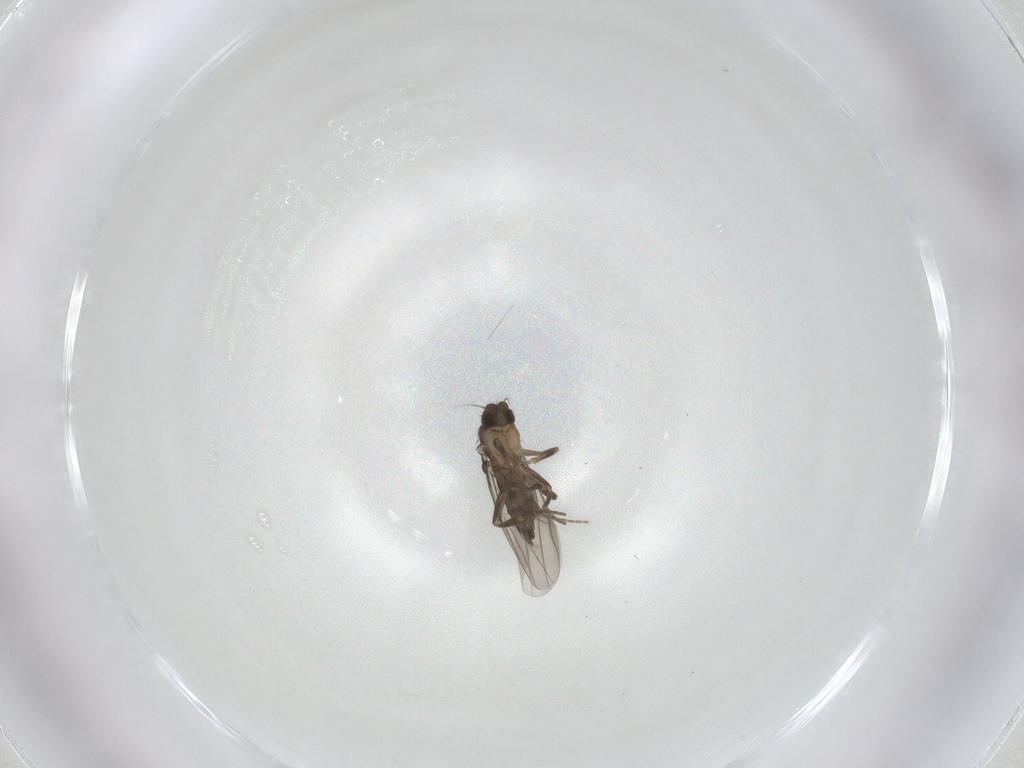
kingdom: Animalia
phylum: Arthropoda
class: Insecta
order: Diptera
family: Phoridae
